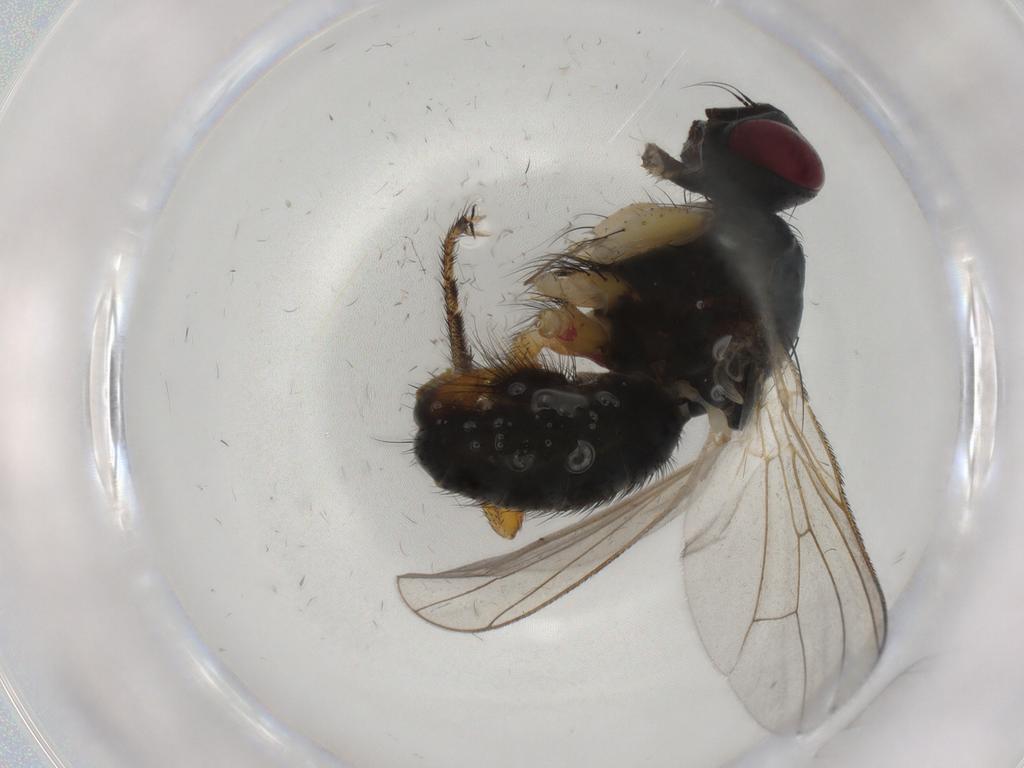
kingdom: Animalia
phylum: Arthropoda
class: Insecta
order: Diptera
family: Muscidae
